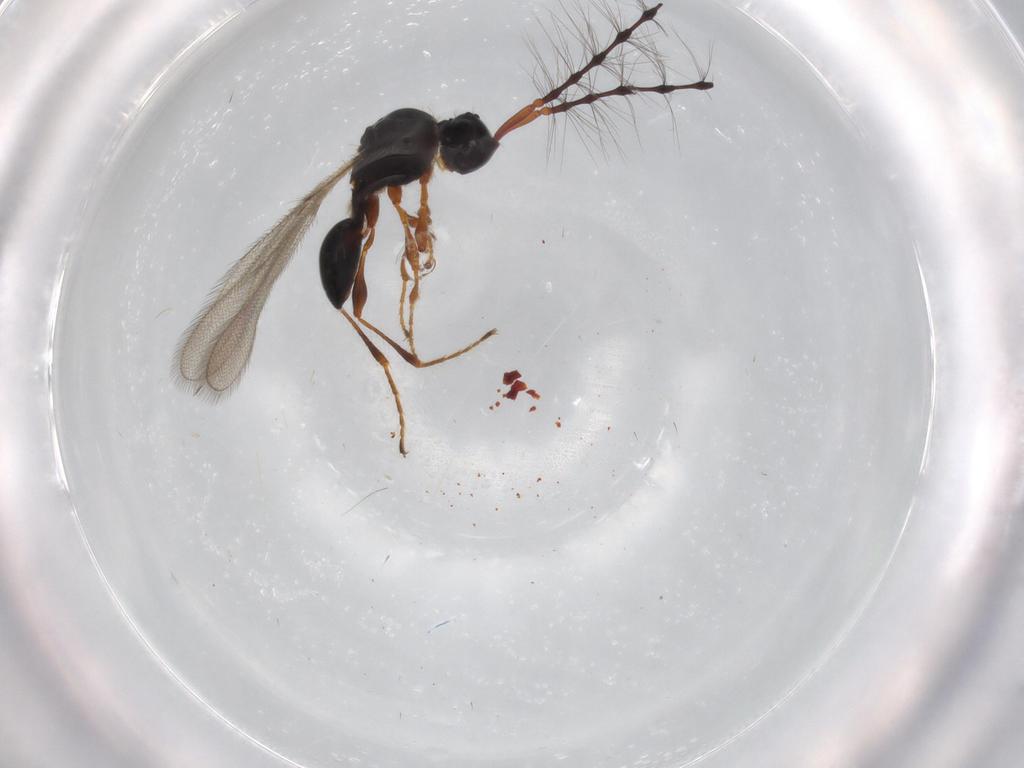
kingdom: Animalia
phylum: Arthropoda
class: Insecta
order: Hymenoptera
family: Diapriidae
